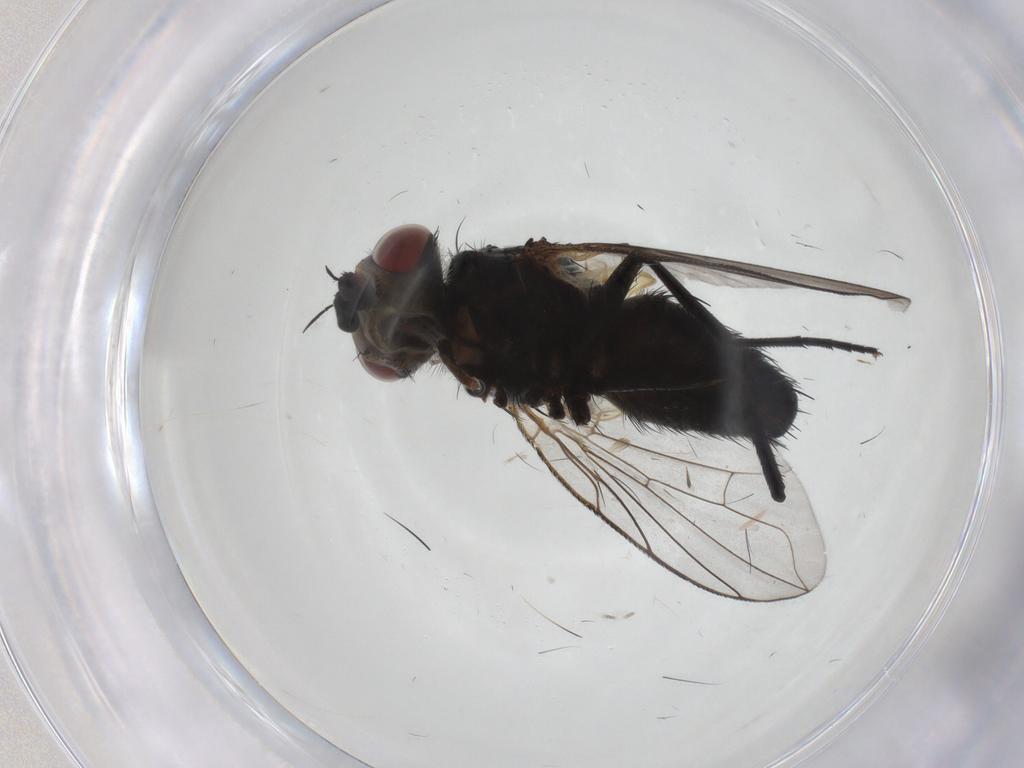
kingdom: Animalia
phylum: Arthropoda
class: Insecta
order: Diptera
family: Tachinidae
